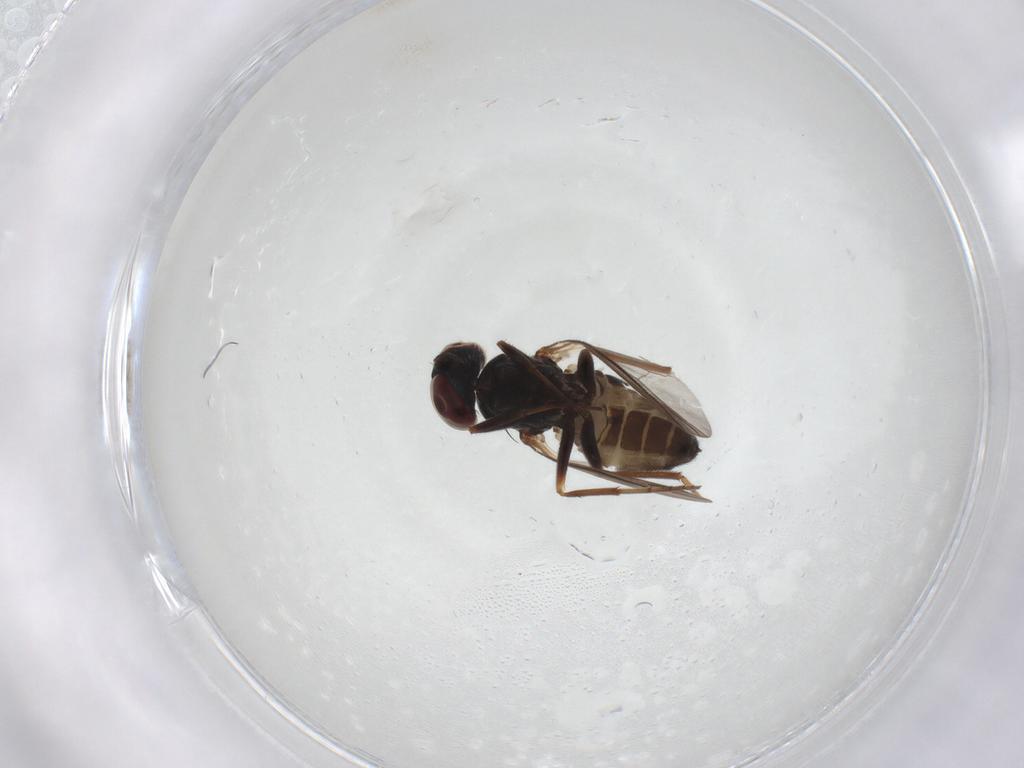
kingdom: Animalia
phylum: Arthropoda
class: Insecta
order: Diptera
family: Dolichopodidae
